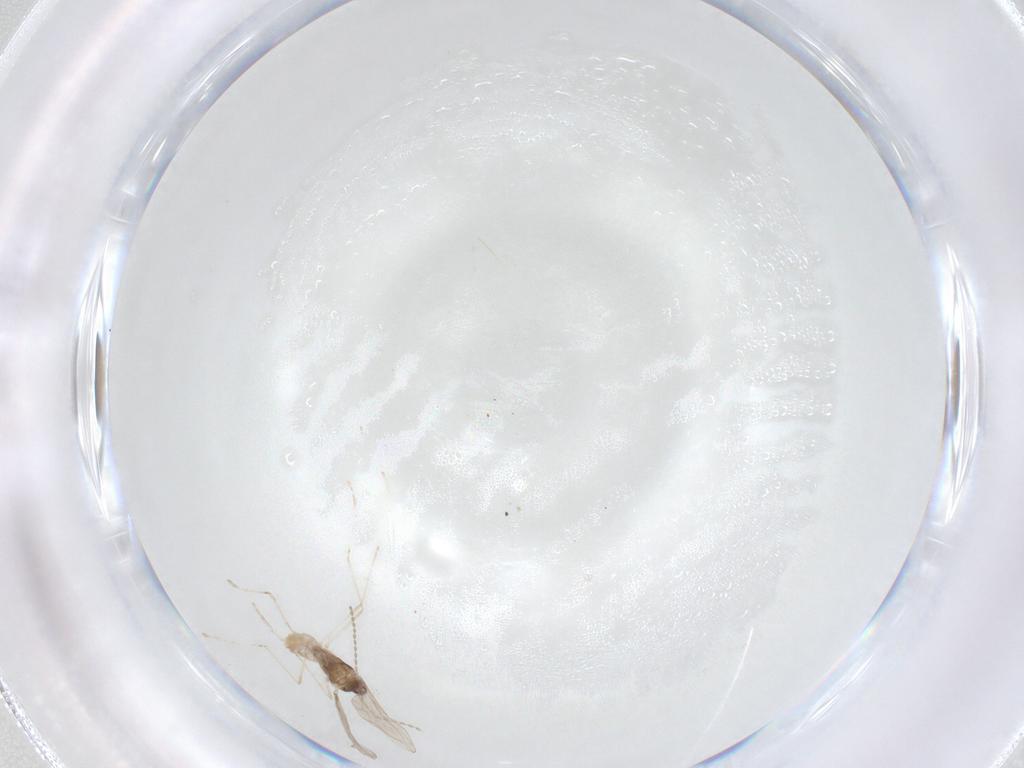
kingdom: Animalia
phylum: Arthropoda
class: Insecta
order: Diptera
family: Cecidomyiidae
